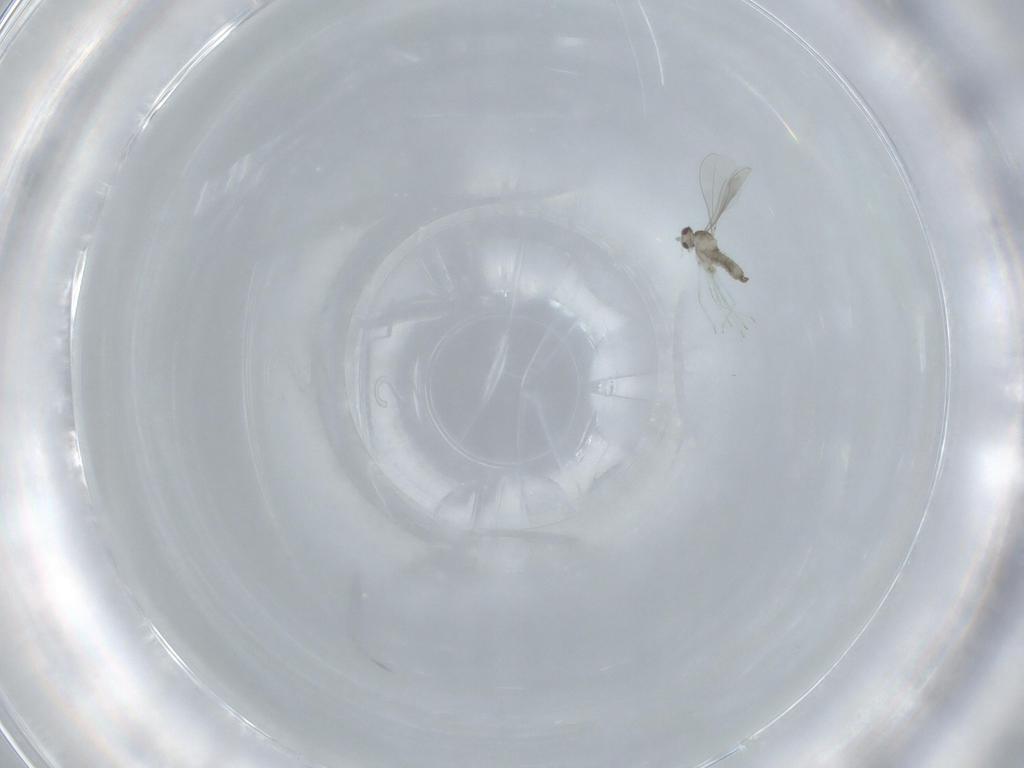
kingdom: Animalia
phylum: Arthropoda
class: Insecta
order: Diptera
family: Cecidomyiidae
